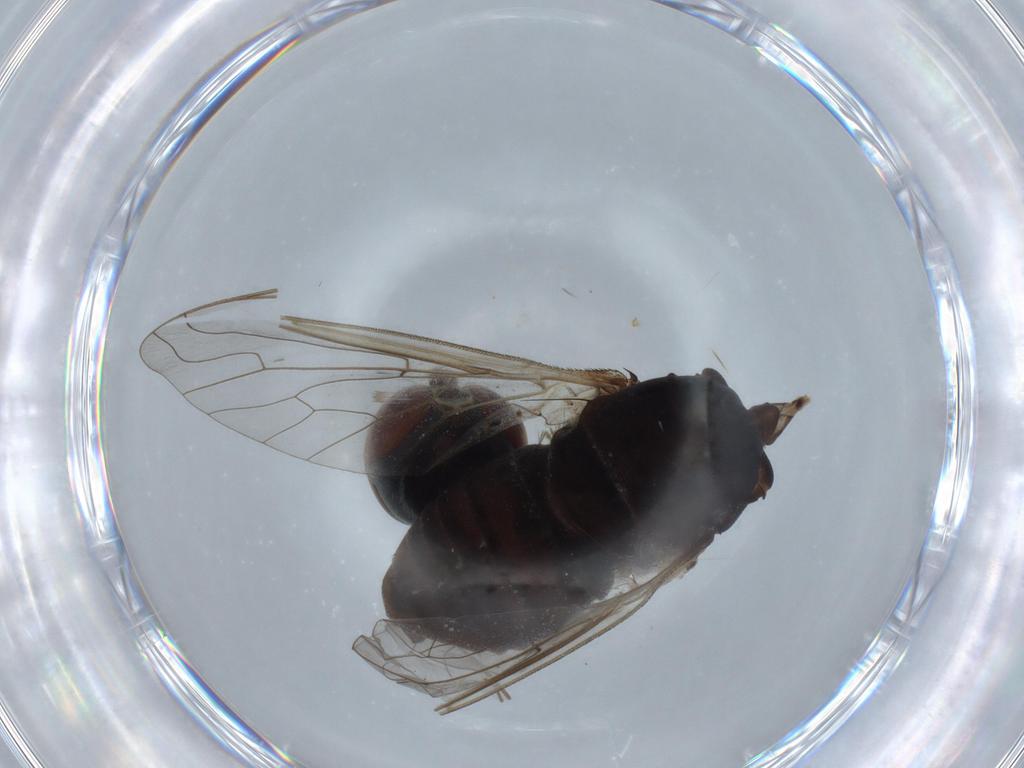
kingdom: Animalia
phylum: Arthropoda
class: Insecta
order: Diptera
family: Bombyliidae
